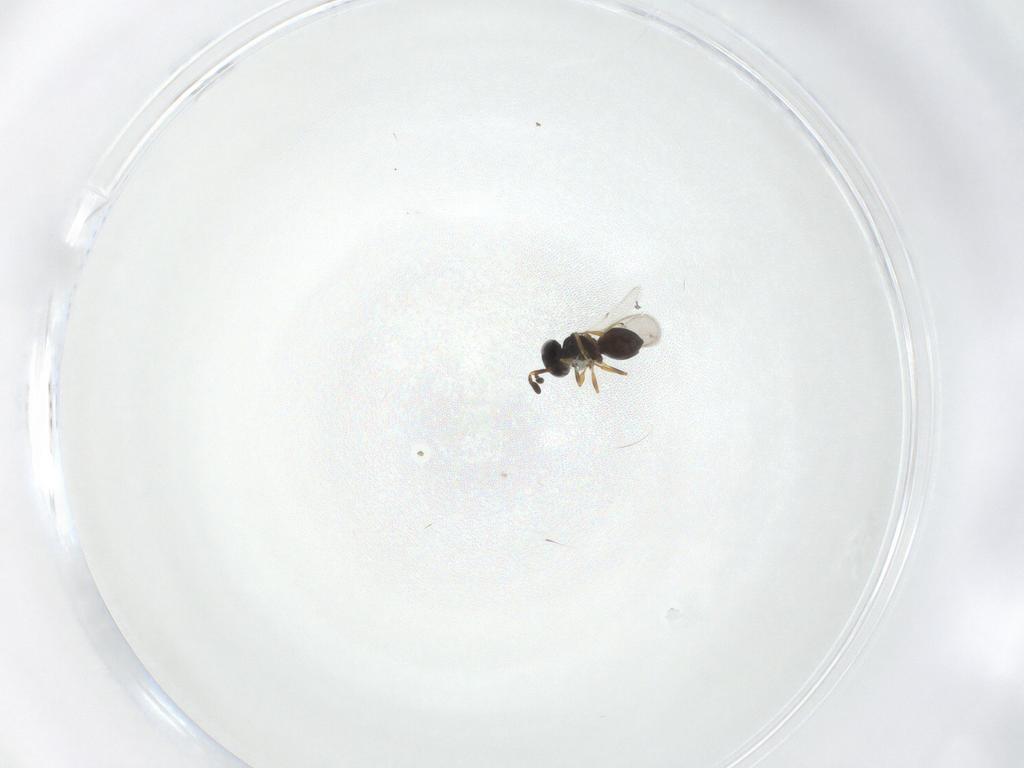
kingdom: Animalia
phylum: Arthropoda
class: Insecta
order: Hymenoptera
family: Scelionidae
